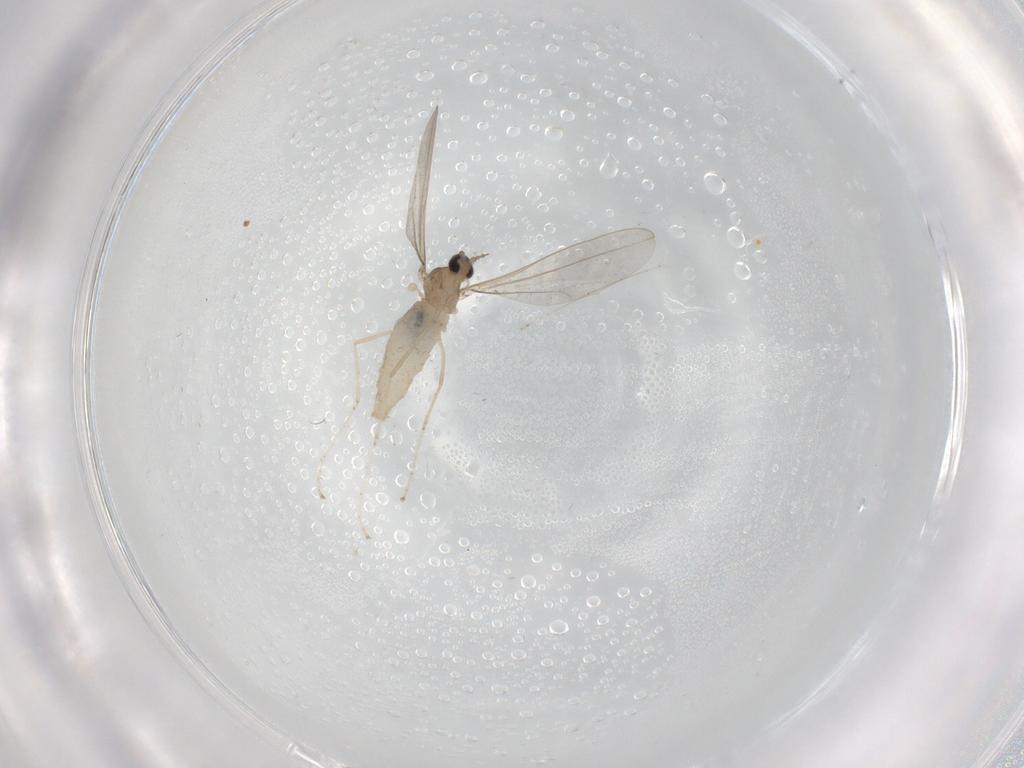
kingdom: Animalia
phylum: Arthropoda
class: Insecta
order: Diptera
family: Cecidomyiidae
